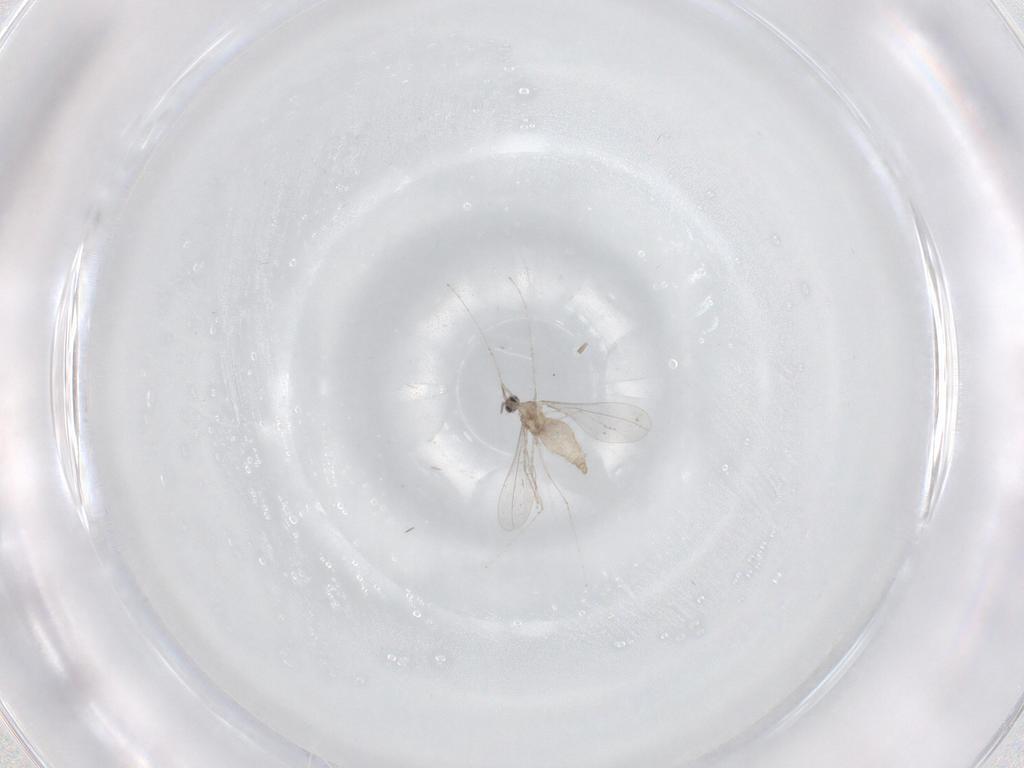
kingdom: Animalia
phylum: Arthropoda
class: Insecta
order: Diptera
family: Cecidomyiidae
